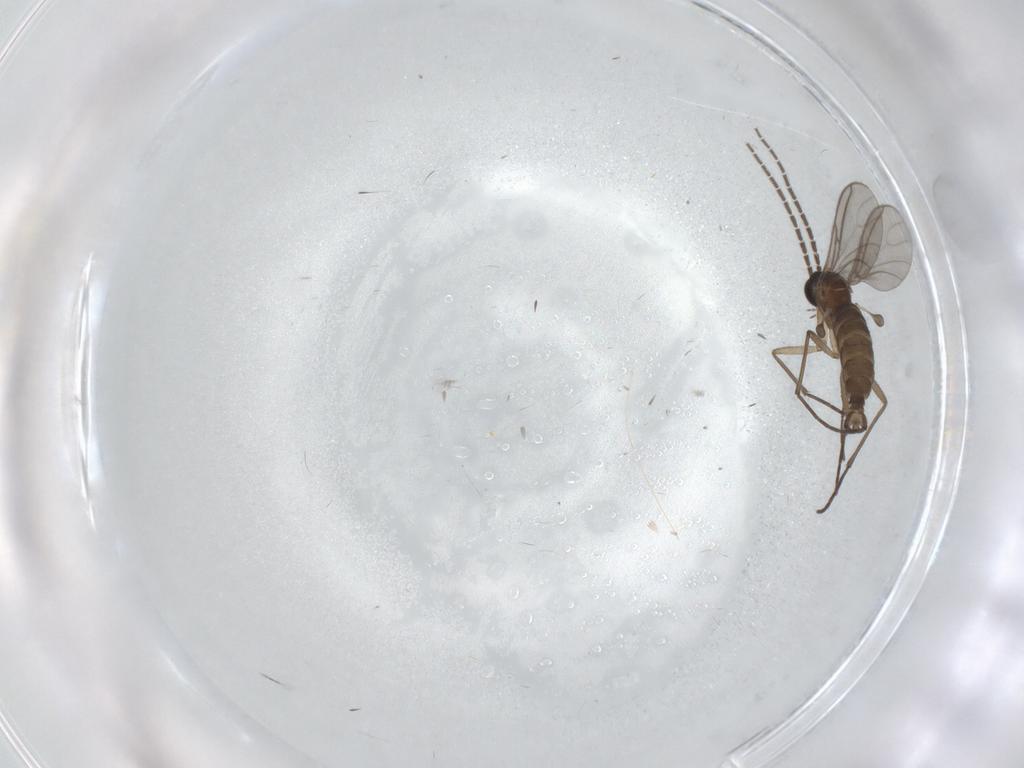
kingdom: Animalia
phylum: Arthropoda
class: Insecta
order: Diptera
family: Sciaridae
